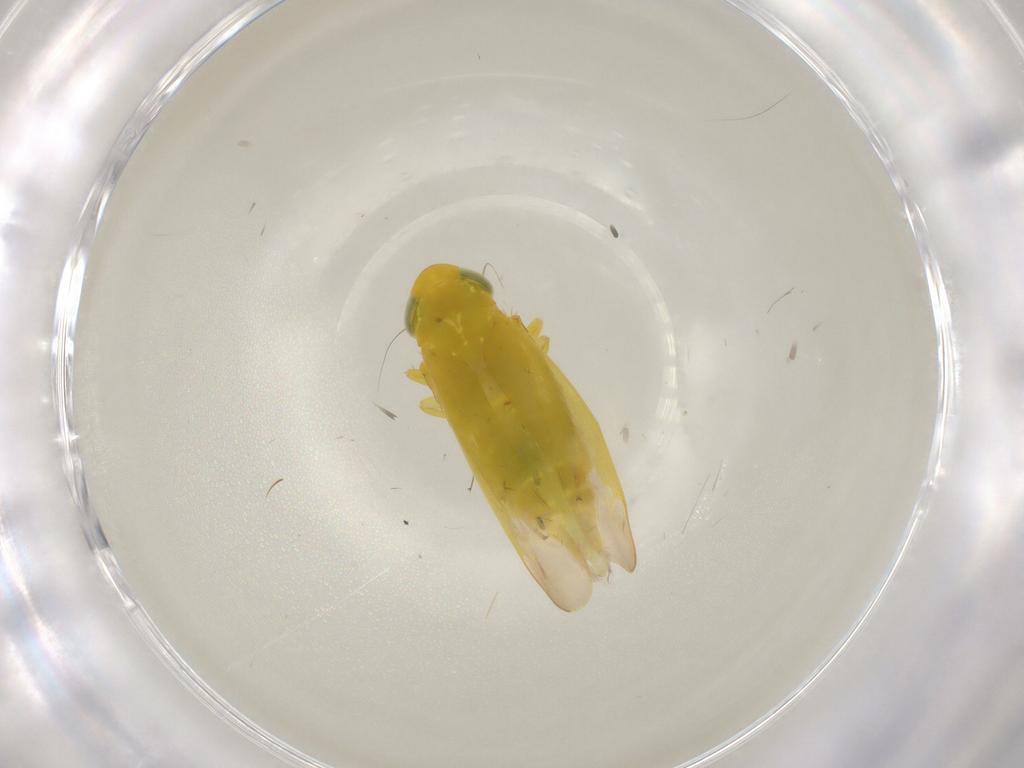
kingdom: Animalia
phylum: Arthropoda
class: Insecta
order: Hemiptera
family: Cicadellidae
